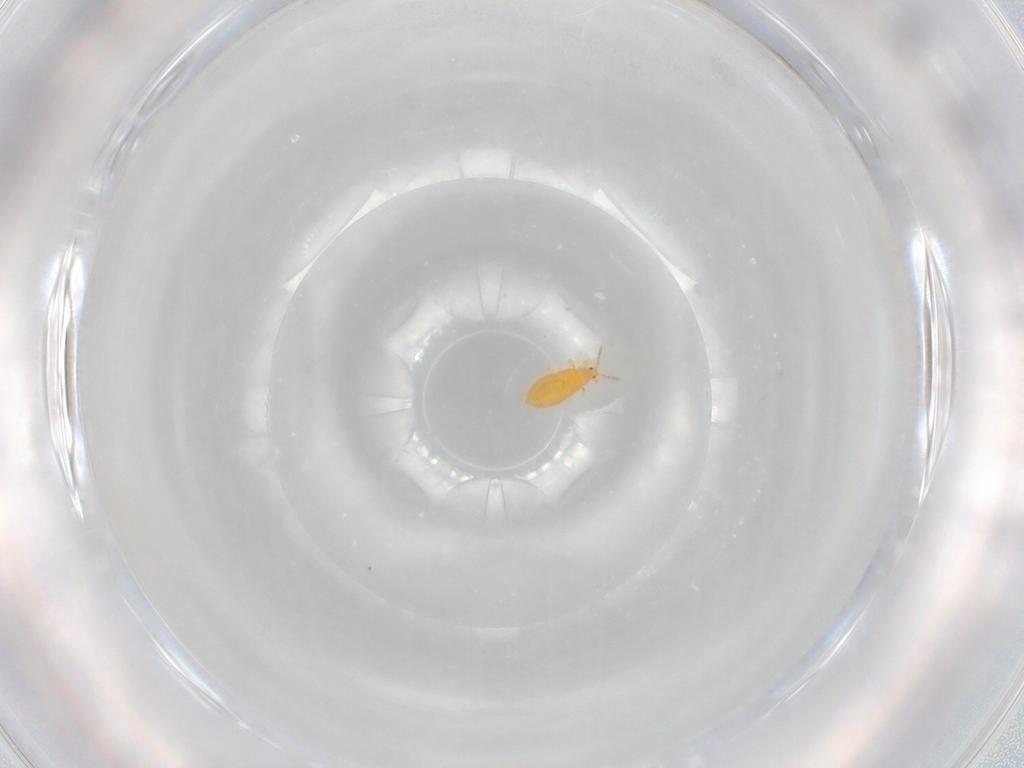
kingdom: Animalia
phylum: Arthropoda
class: Insecta
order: Thysanoptera
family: Heterothripidae
